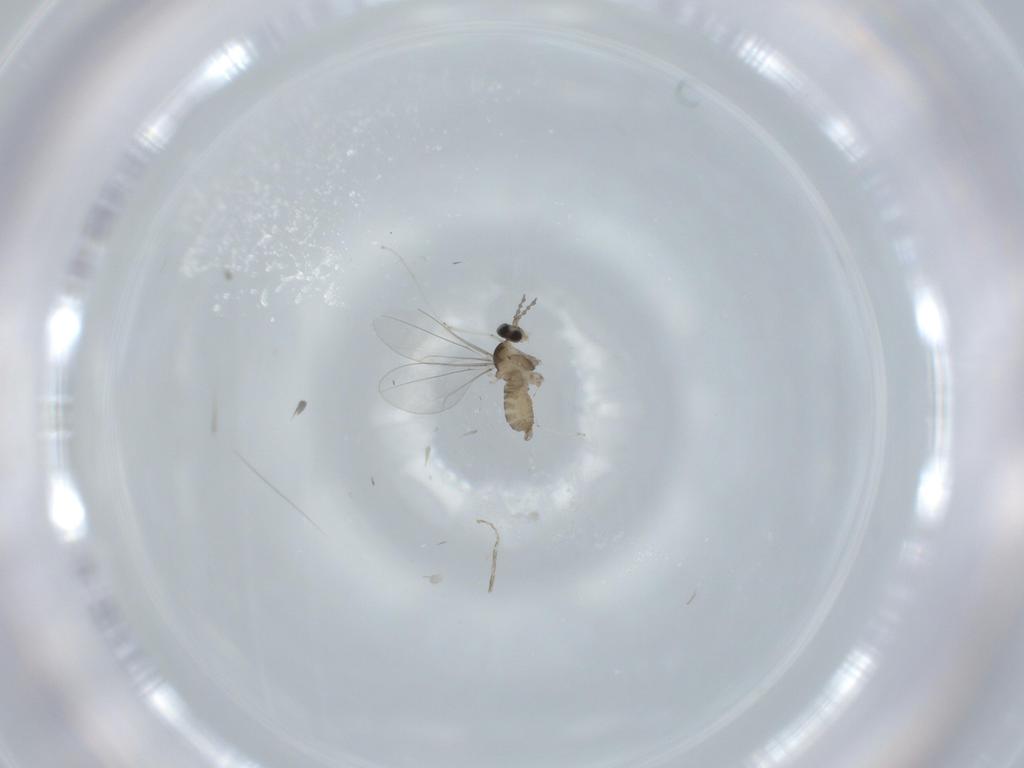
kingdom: Animalia
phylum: Arthropoda
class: Insecta
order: Diptera
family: Cecidomyiidae
